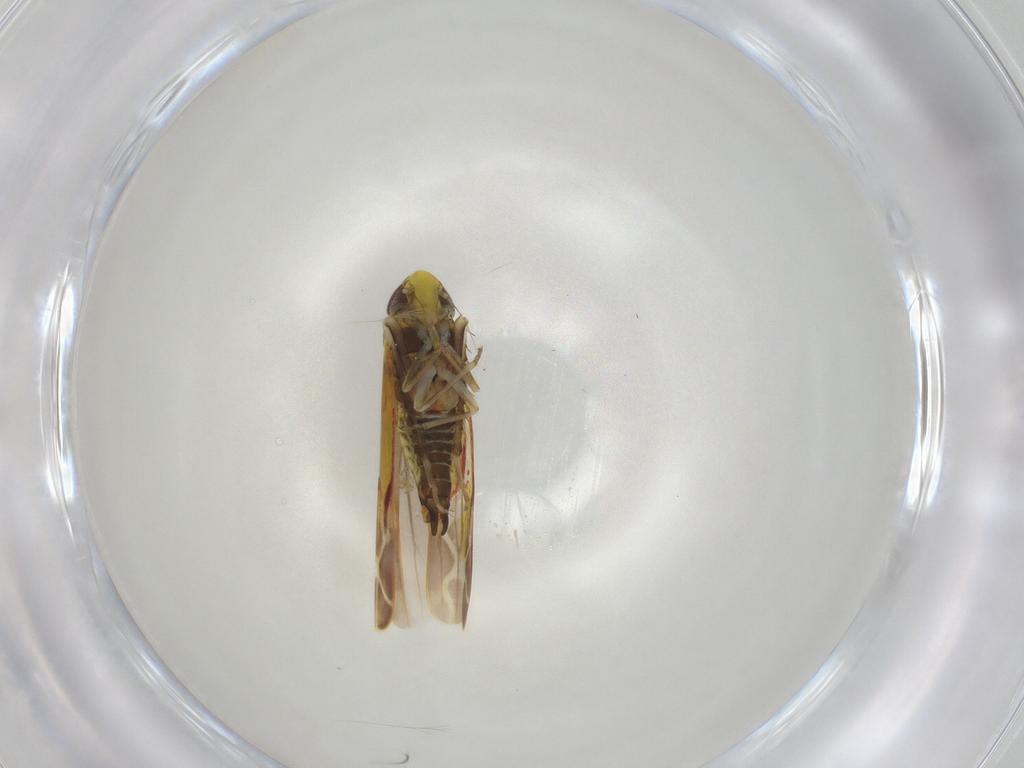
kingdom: Animalia
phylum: Arthropoda
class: Insecta
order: Hemiptera
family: Cicadellidae
